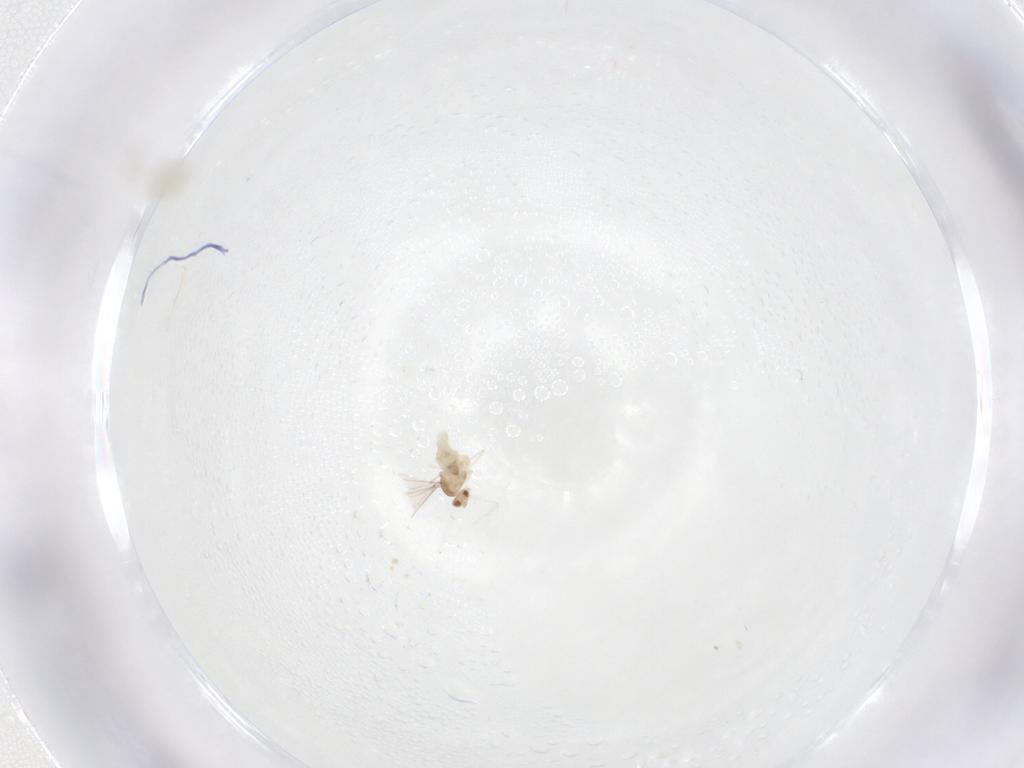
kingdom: Animalia
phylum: Arthropoda
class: Insecta
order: Diptera
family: Cecidomyiidae
